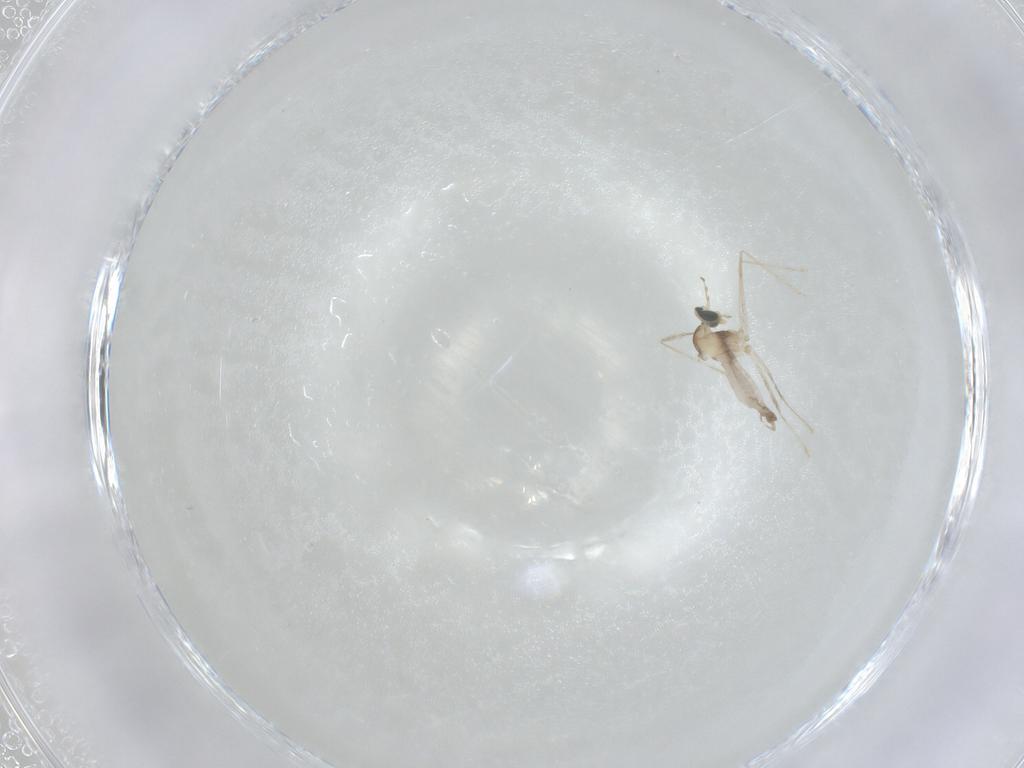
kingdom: Animalia
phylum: Arthropoda
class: Insecta
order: Diptera
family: Cecidomyiidae
